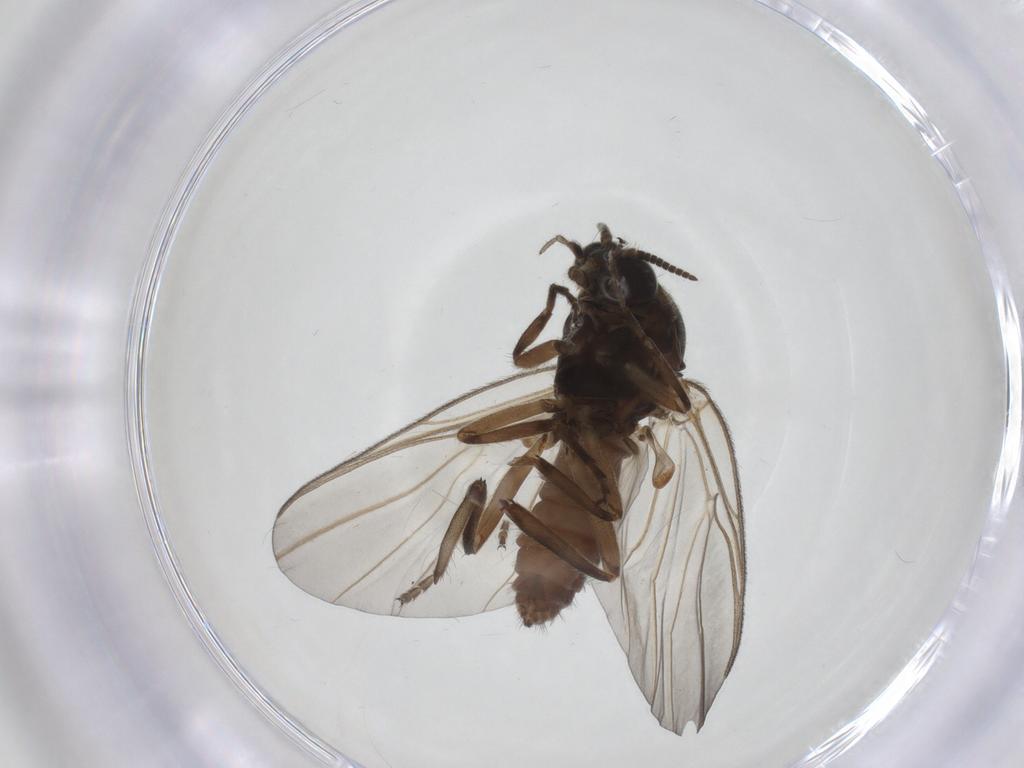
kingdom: Animalia
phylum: Arthropoda
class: Insecta
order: Diptera
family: Simuliidae
